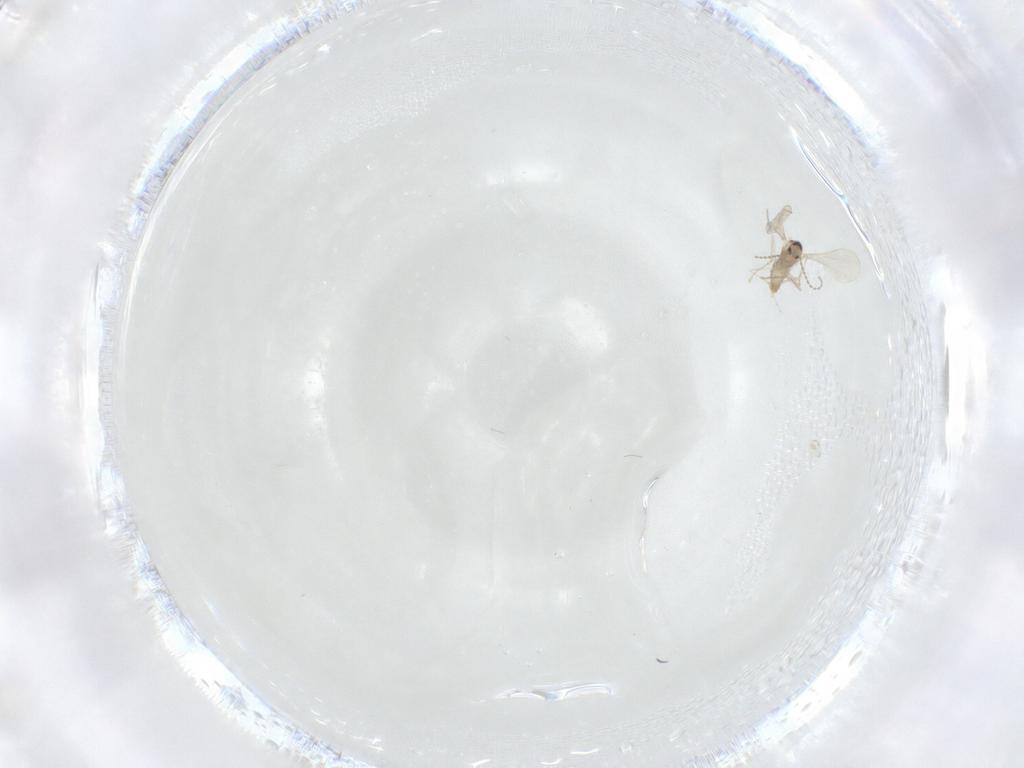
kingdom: Animalia
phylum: Arthropoda
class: Insecta
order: Diptera
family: Cecidomyiidae
